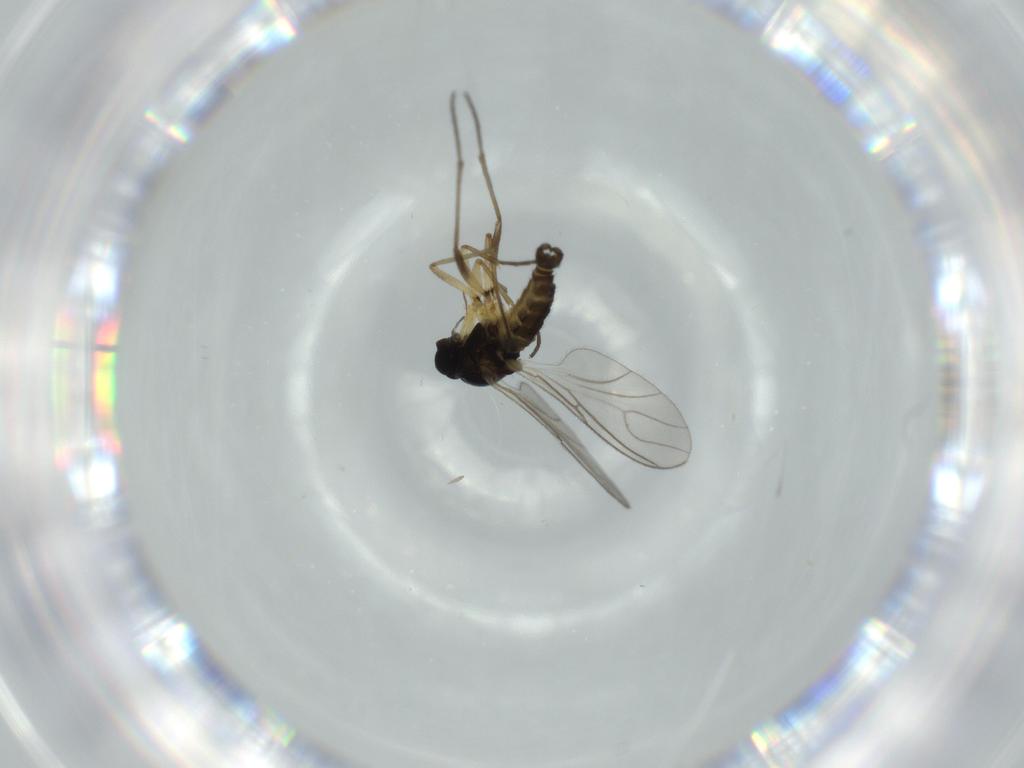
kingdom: Animalia
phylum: Arthropoda
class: Insecta
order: Diptera
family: Sciaridae
